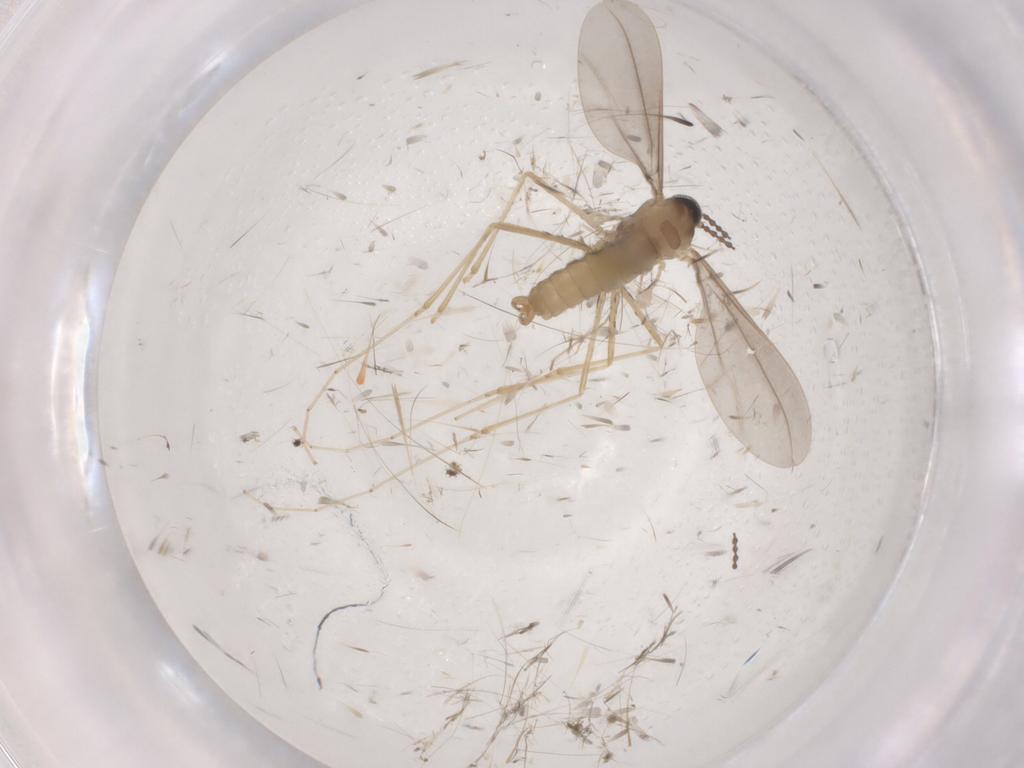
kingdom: Animalia
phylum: Arthropoda
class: Insecta
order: Diptera
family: Cecidomyiidae
